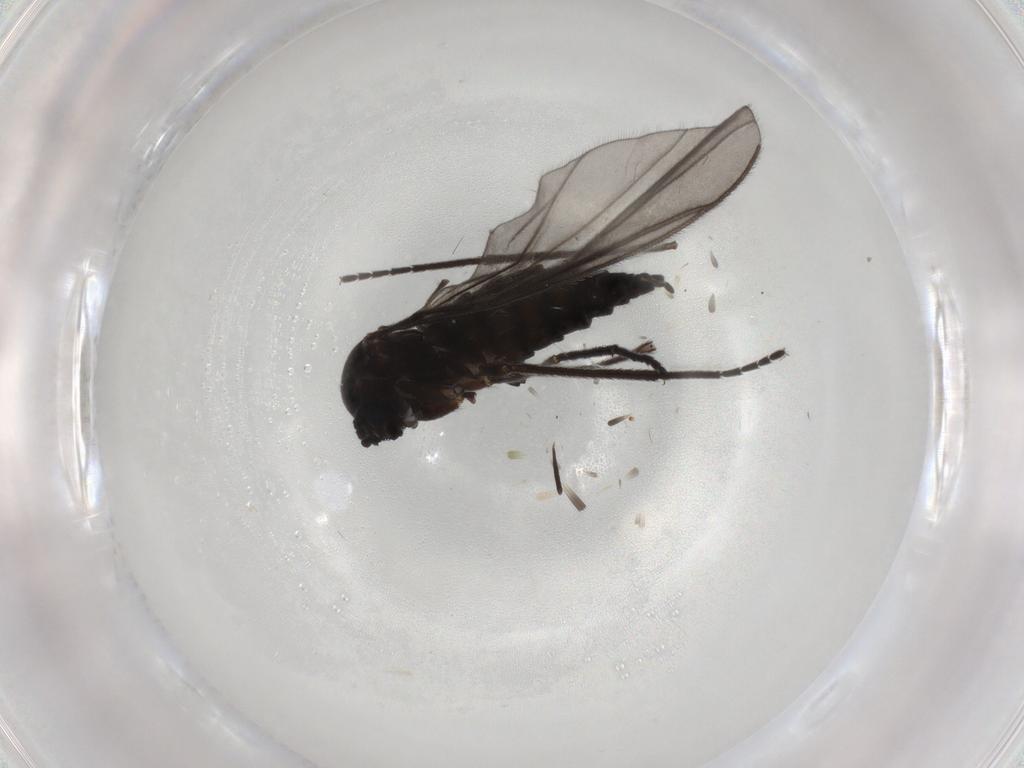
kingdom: Animalia
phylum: Arthropoda
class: Insecta
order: Diptera
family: Sciaridae
